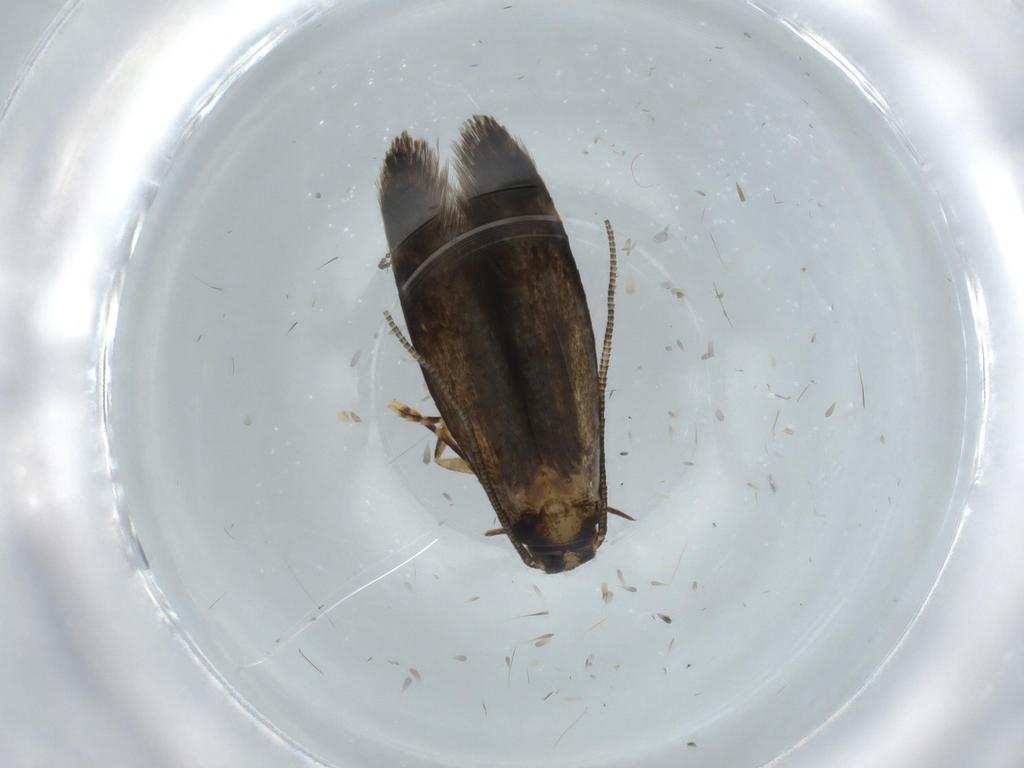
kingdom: Animalia
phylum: Arthropoda
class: Insecta
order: Lepidoptera
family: Tineidae
